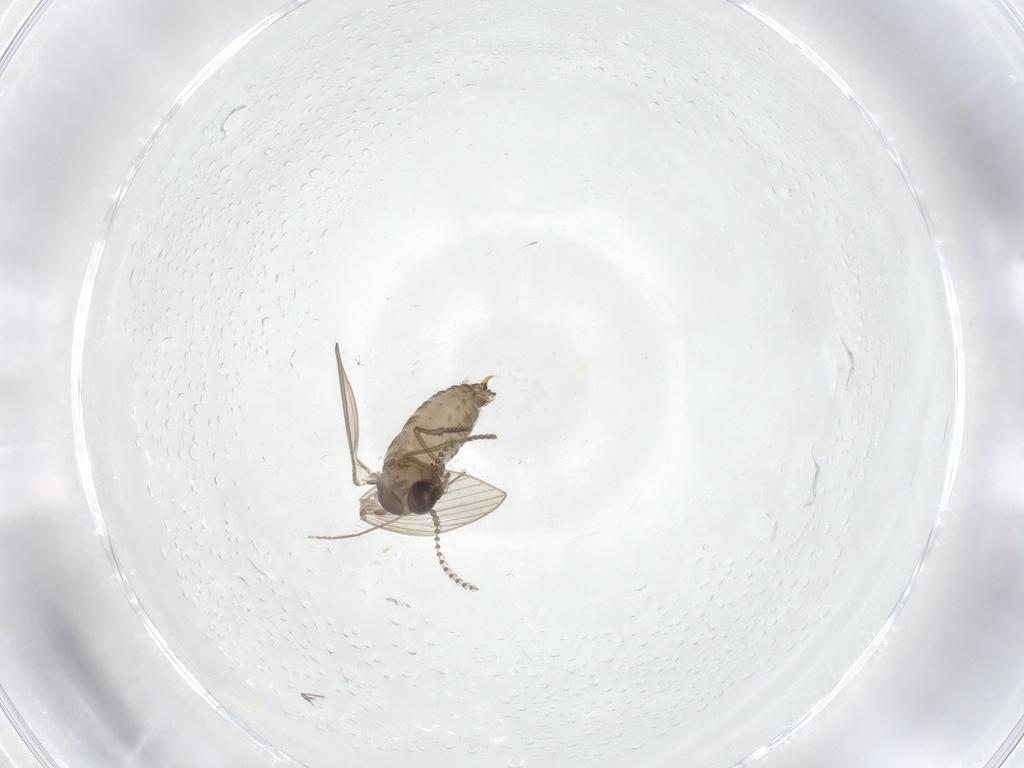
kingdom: Animalia
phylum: Arthropoda
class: Insecta
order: Diptera
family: Psychodidae
